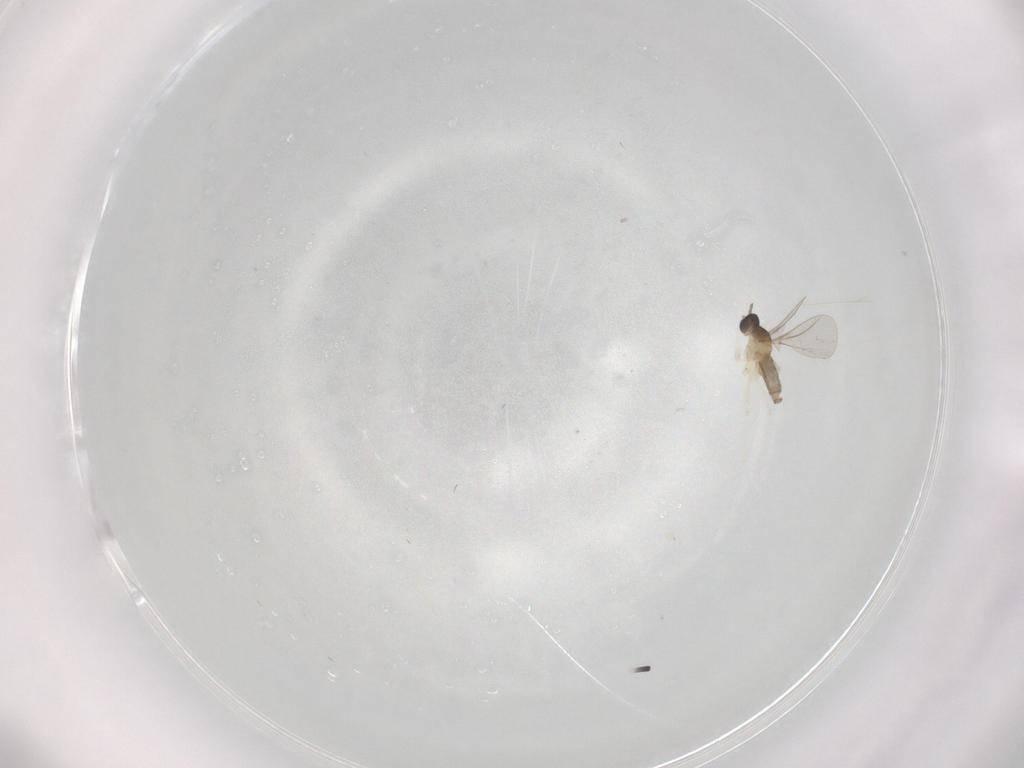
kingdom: Animalia
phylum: Arthropoda
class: Insecta
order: Diptera
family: Cecidomyiidae
